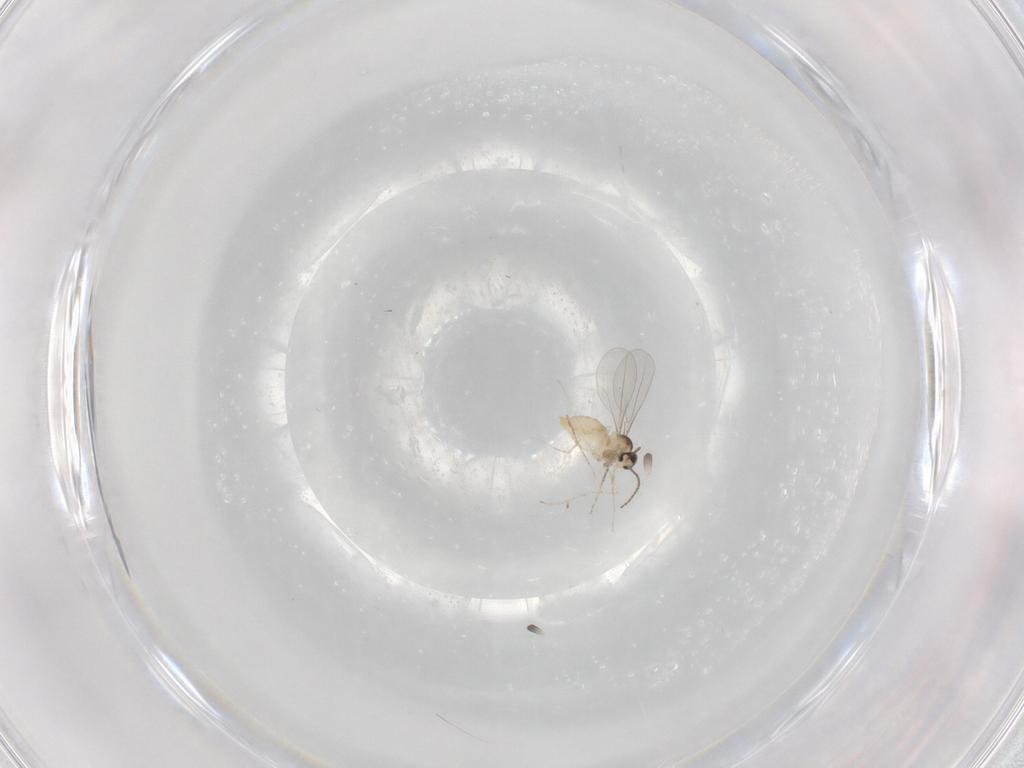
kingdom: Animalia
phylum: Arthropoda
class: Insecta
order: Diptera
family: Cecidomyiidae
